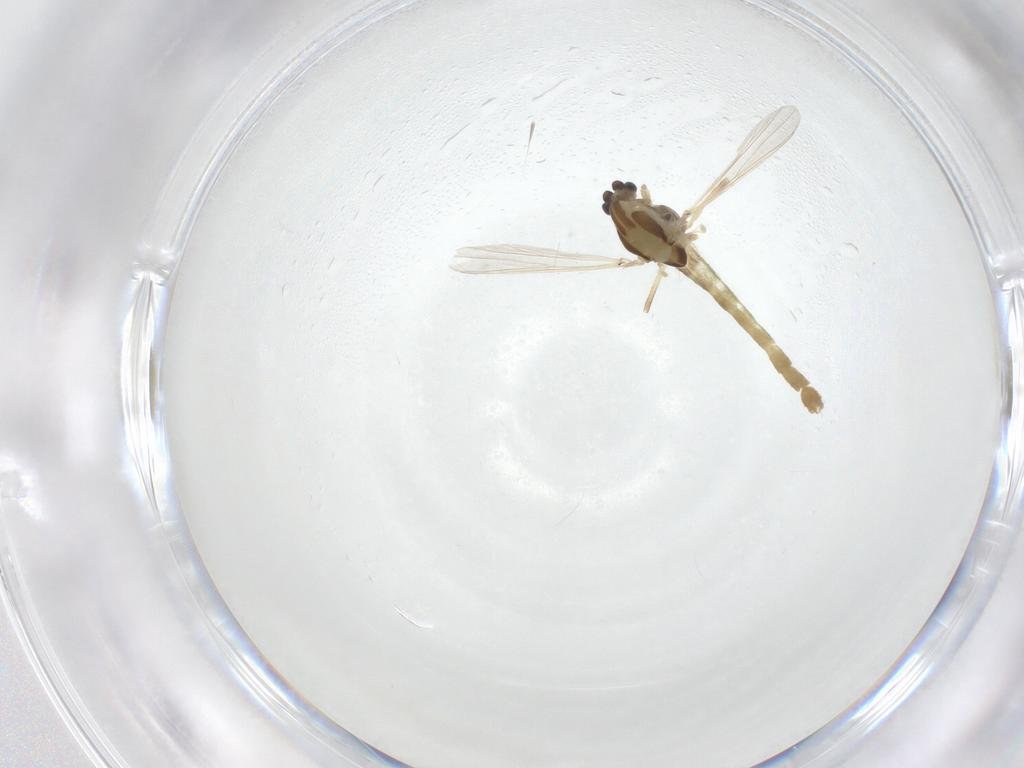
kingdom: Animalia
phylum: Arthropoda
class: Insecta
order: Diptera
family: Chironomidae
